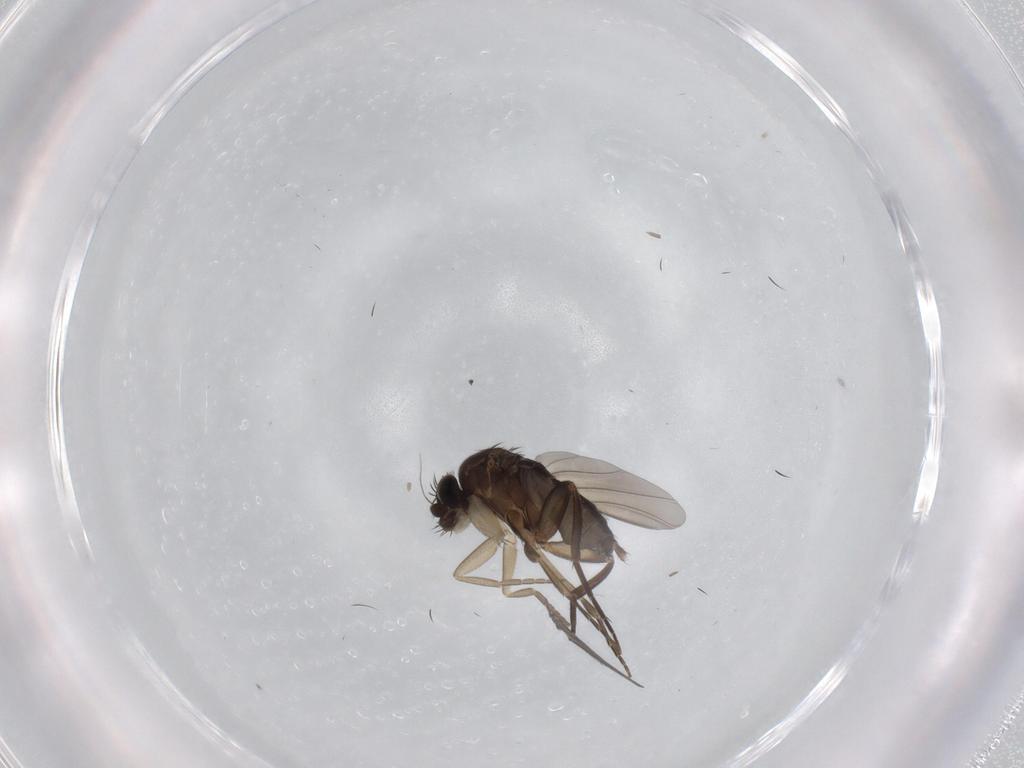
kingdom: Animalia
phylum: Arthropoda
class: Insecta
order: Diptera
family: Phoridae
